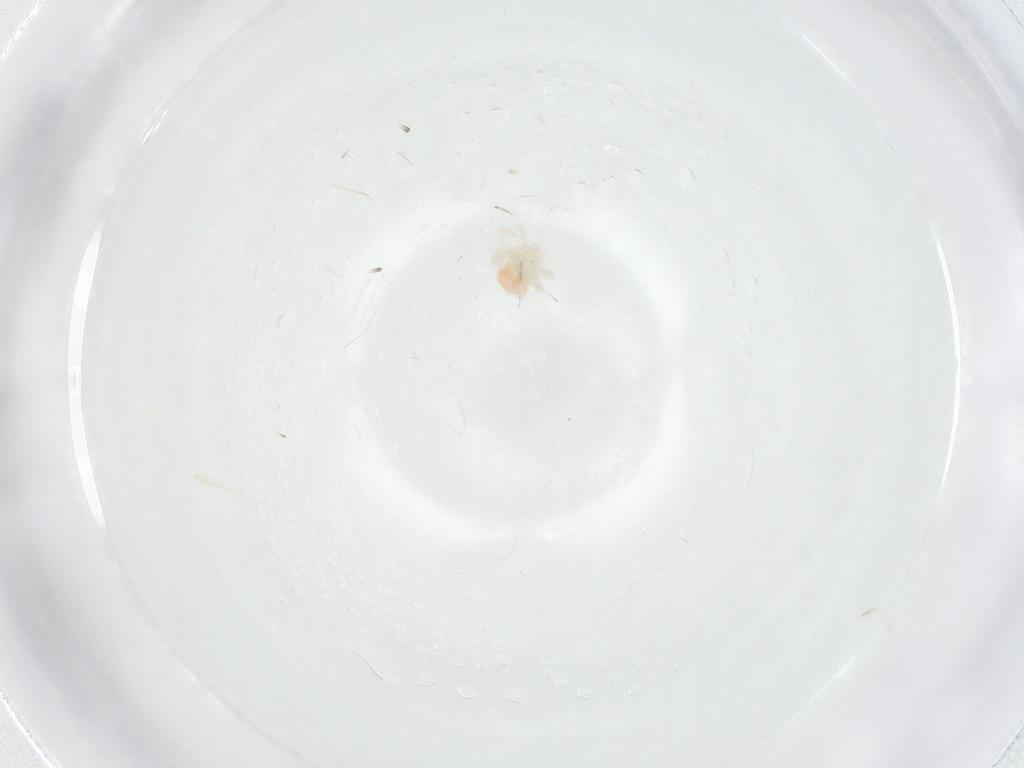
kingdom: Animalia
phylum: Arthropoda
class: Arachnida
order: Trombidiformes
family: Anystidae
